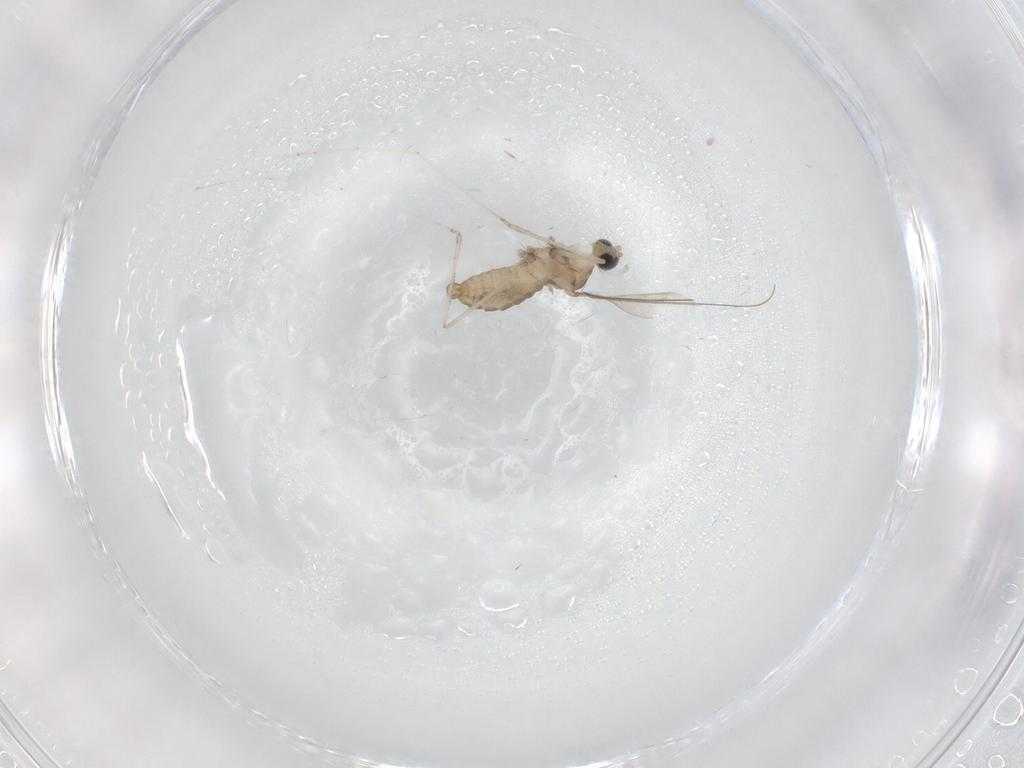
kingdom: Animalia
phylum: Arthropoda
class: Insecta
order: Diptera
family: Cecidomyiidae
